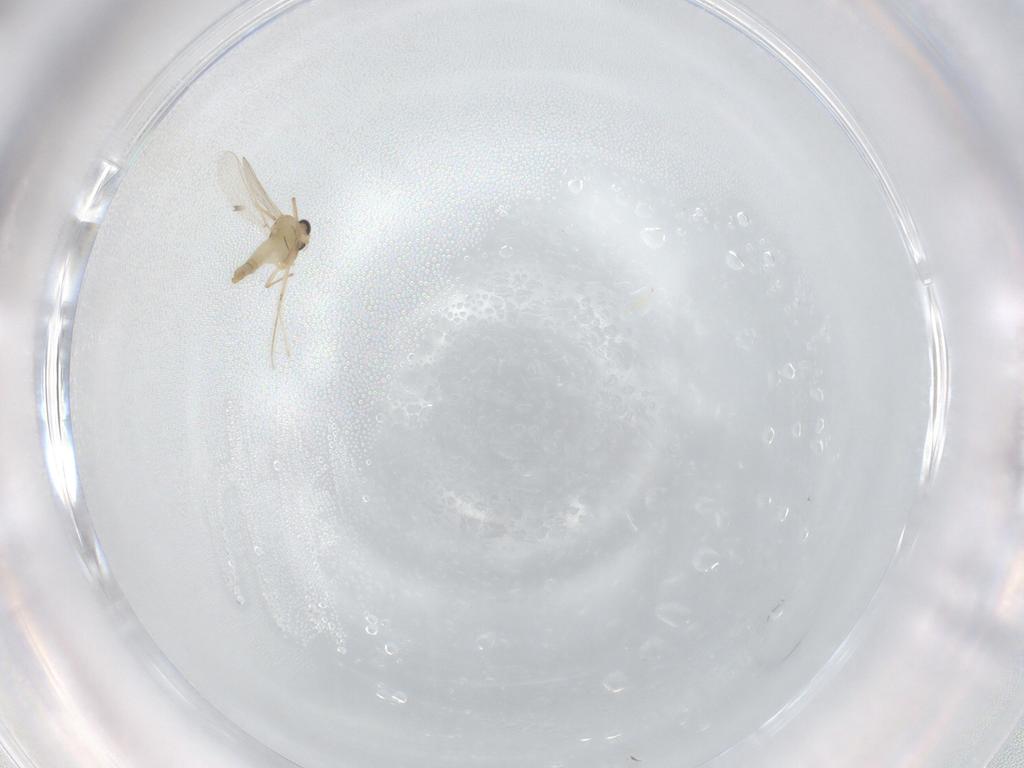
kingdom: Animalia
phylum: Arthropoda
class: Insecta
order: Diptera
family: Chironomidae
